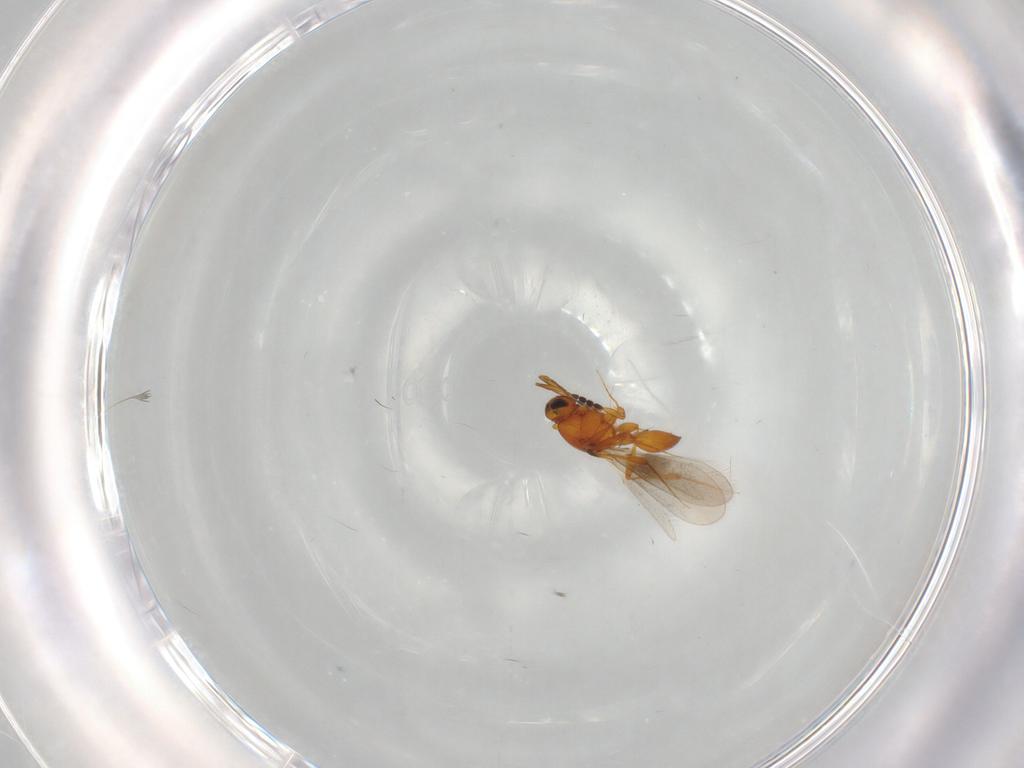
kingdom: Animalia
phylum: Arthropoda
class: Insecta
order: Hymenoptera
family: Platygastridae
